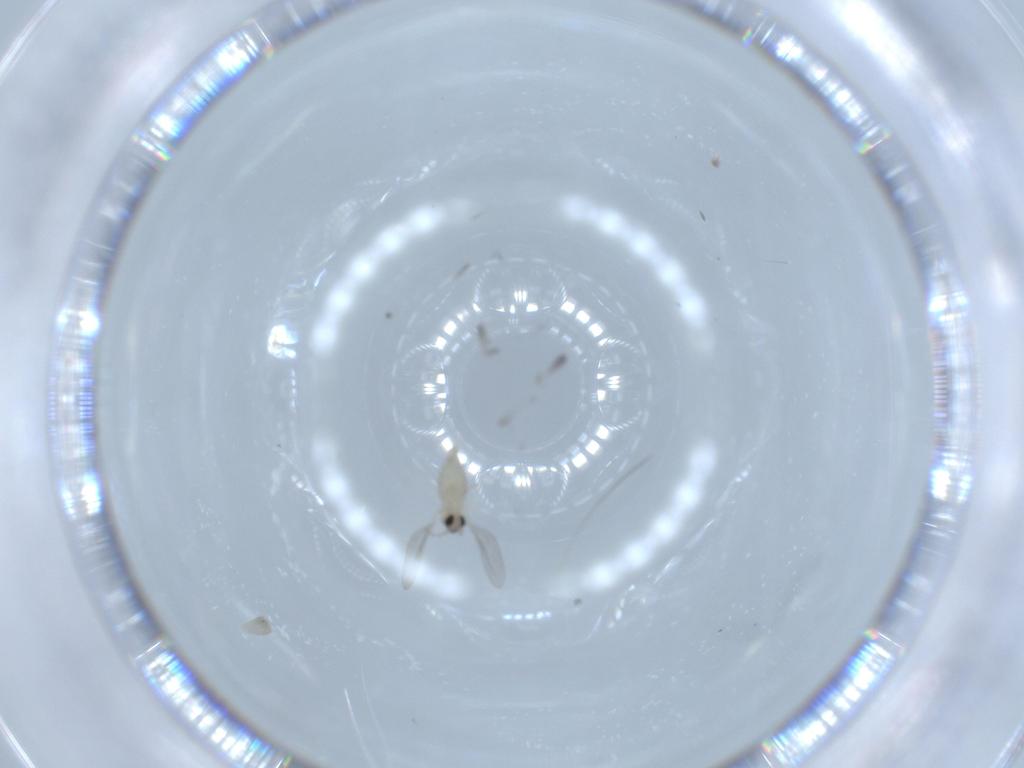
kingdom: Animalia
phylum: Arthropoda
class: Insecta
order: Diptera
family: Cecidomyiidae
